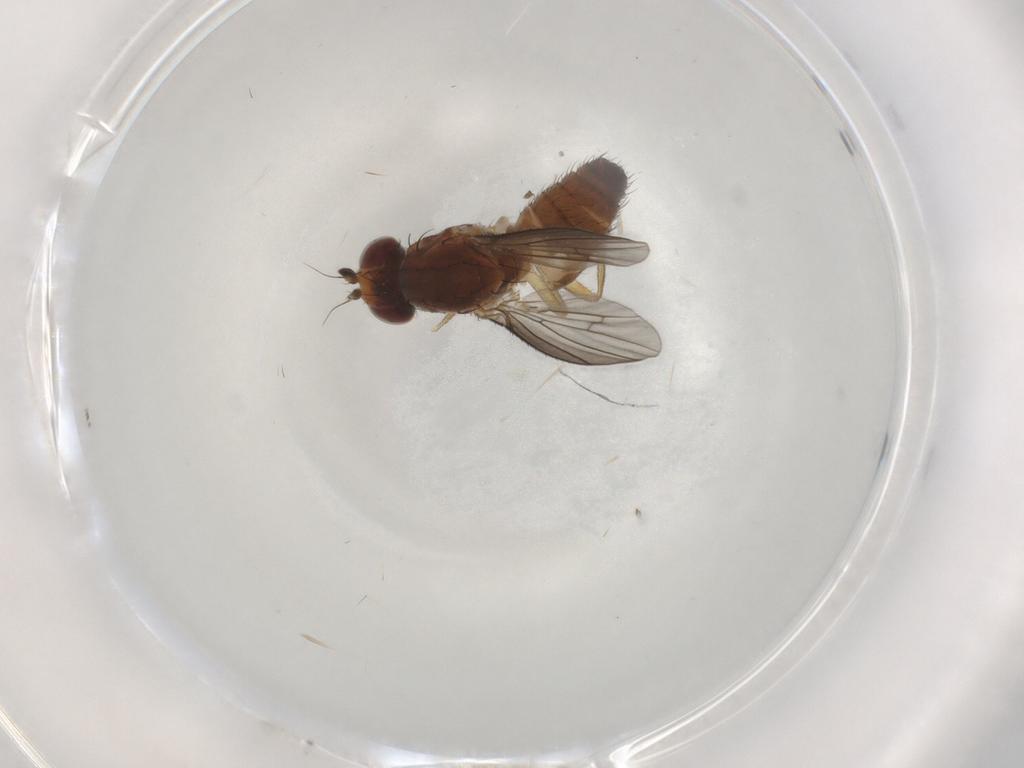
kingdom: Animalia
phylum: Arthropoda
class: Insecta
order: Diptera
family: Heleomyzidae
